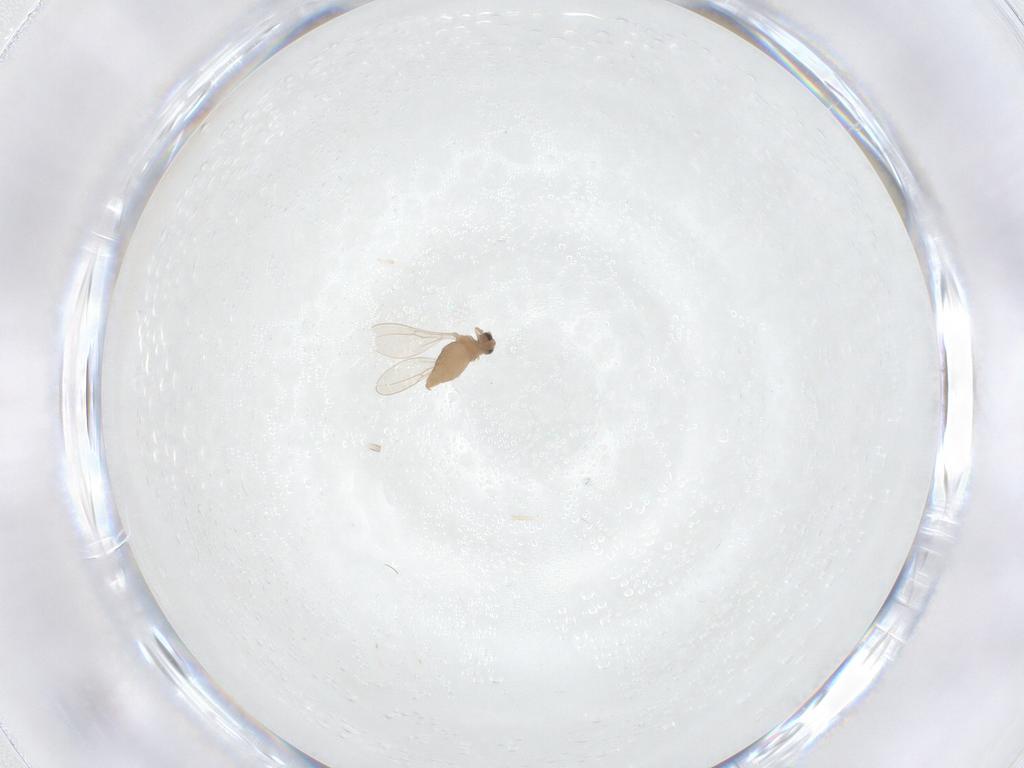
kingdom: Animalia
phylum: Arthropoda
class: Insecta
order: Diptera
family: Cecidomyiidae
